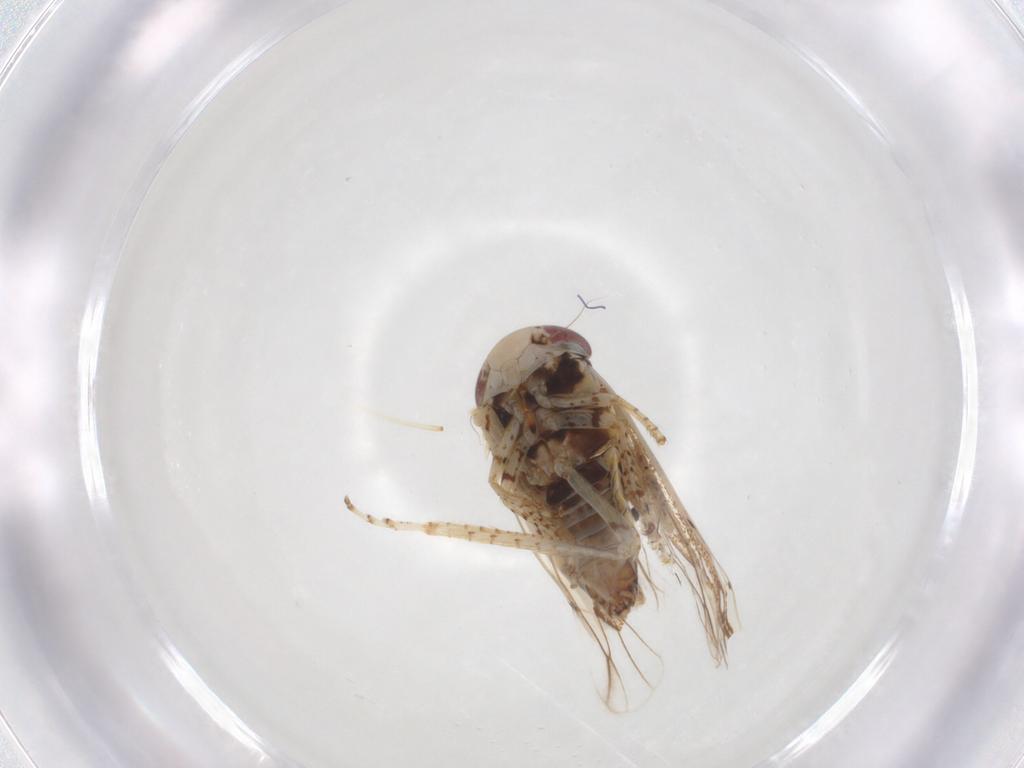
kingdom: Animalia
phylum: Arthropoda
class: Insecta
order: Hemiptera
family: Cicadellidae
